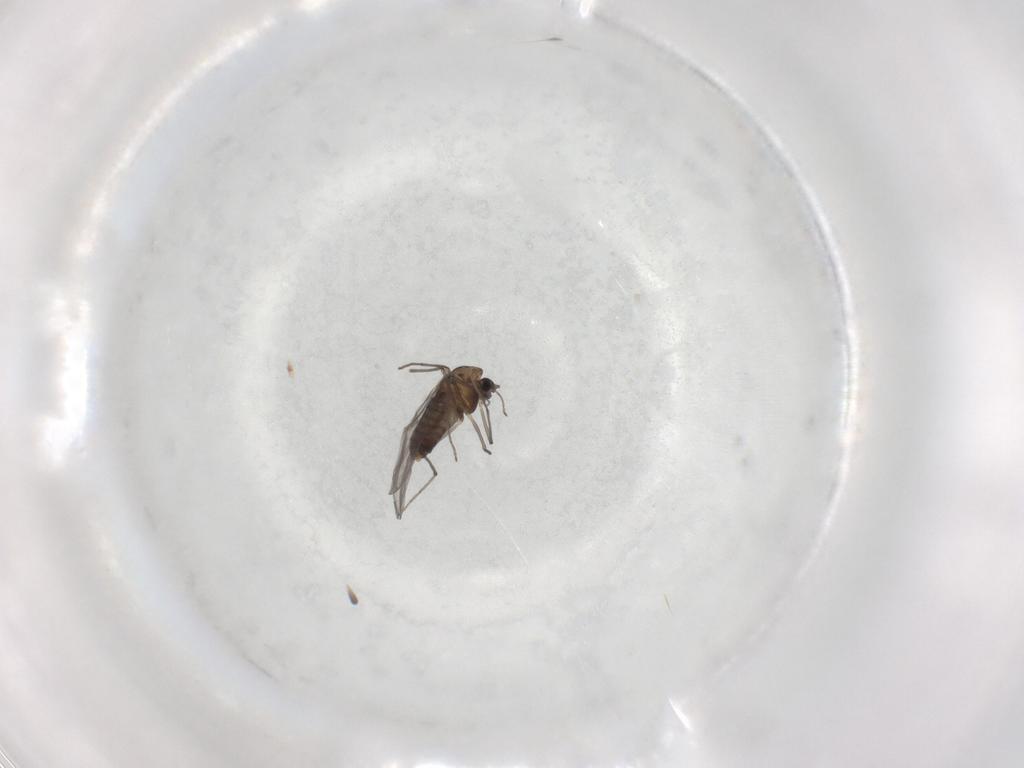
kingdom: Animalia
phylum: Arthropoda
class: Insecta
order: Diptera
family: Chironomidae
